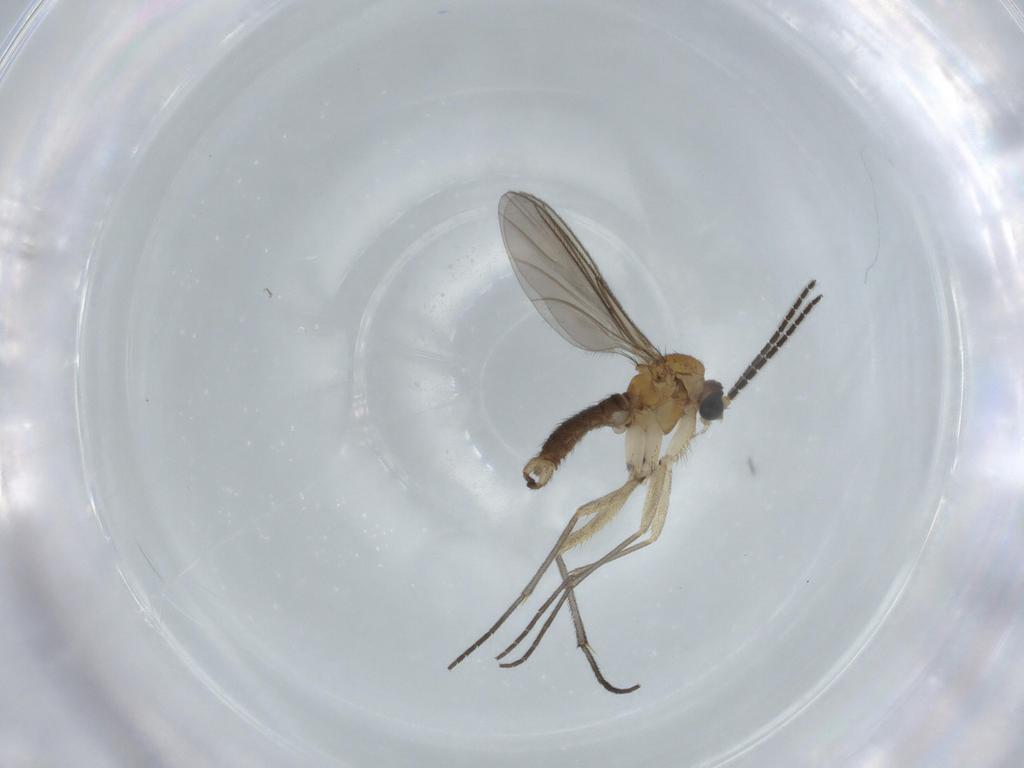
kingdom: Animalia
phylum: Arthropoda
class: Insecta
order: Diptera
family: Sciaridae
